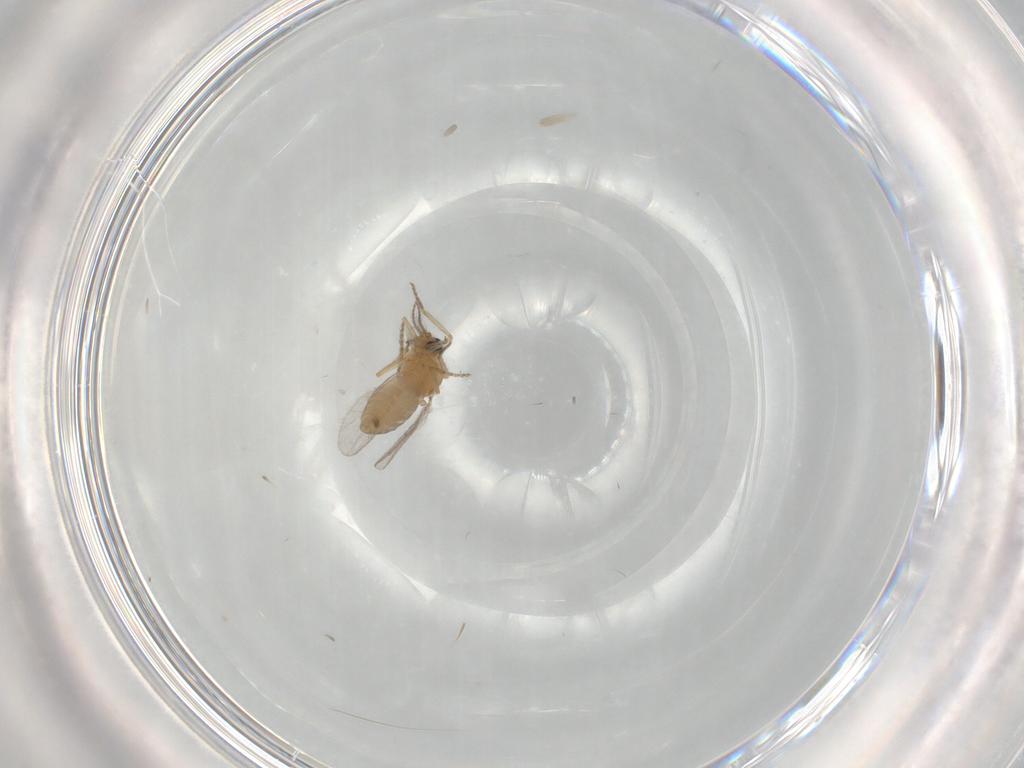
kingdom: Animalia
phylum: Arthropoda
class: Insecta
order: Diptera
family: Ceratopogonidae
